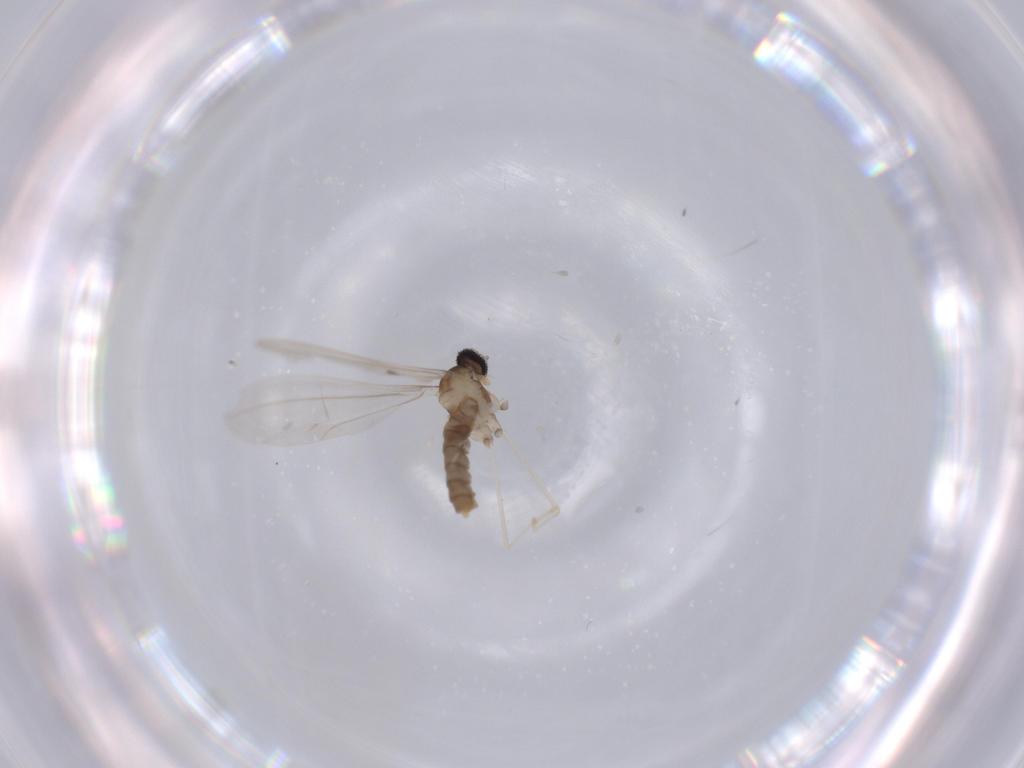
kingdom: Animalia
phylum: Arthropoda
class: Insecta
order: Diptera
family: Cecidomyiidae
